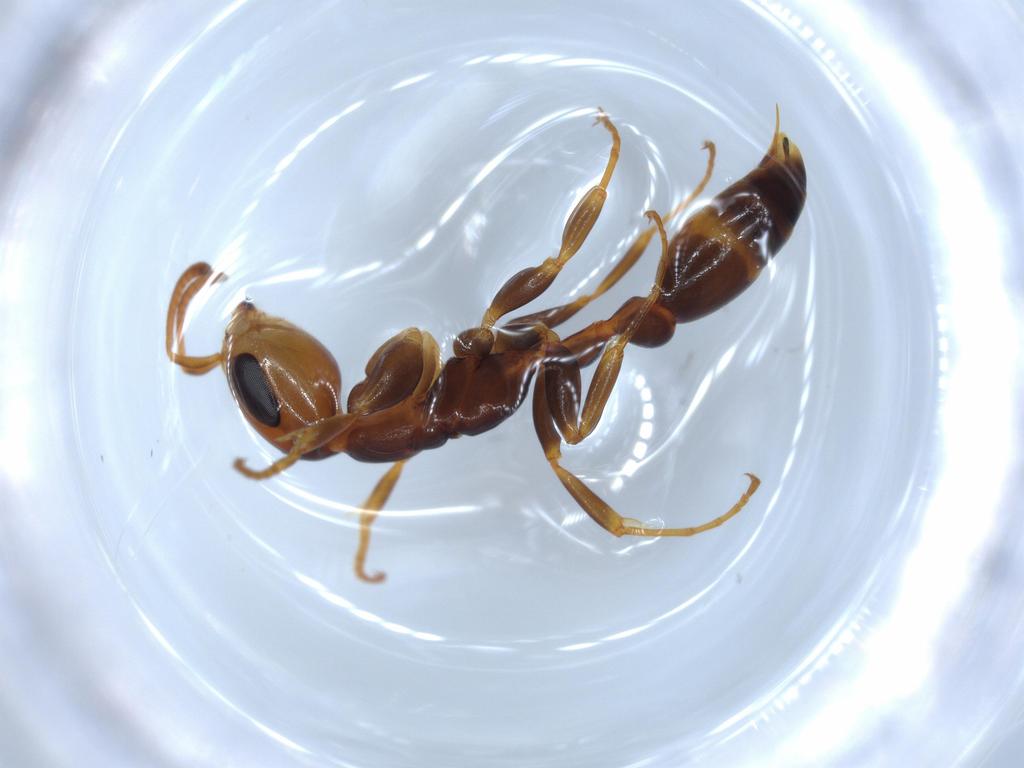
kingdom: Animalia
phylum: Arthropoda
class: Insecta
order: Hymenoptera
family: Formicidae
